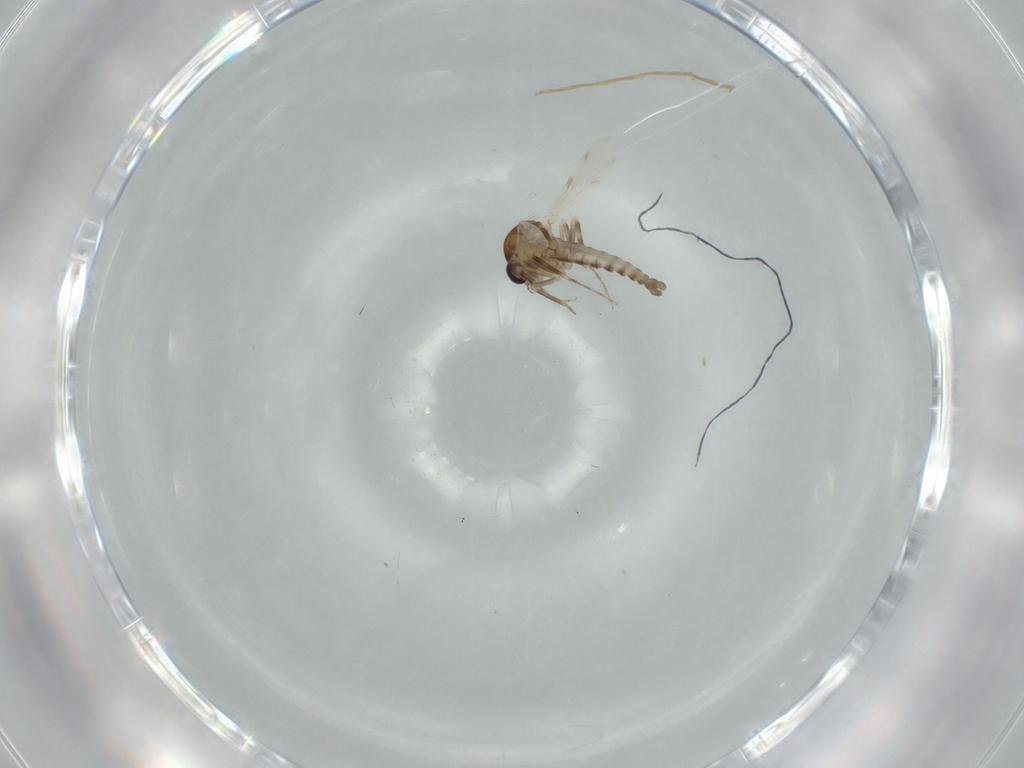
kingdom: Animalia
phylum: Arthropoda
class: Insecta
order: Diptera
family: Ceratopogonidae
